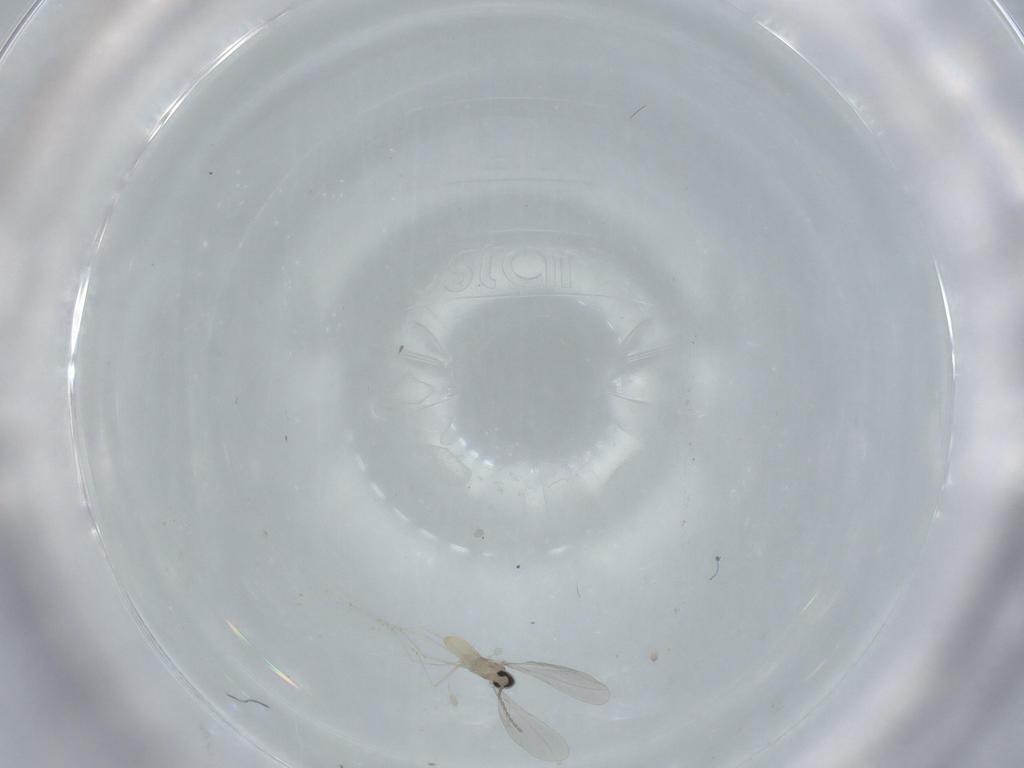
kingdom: Animalia
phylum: Arthropoda
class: Insecta
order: Diptera
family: Cecidomyiidae
